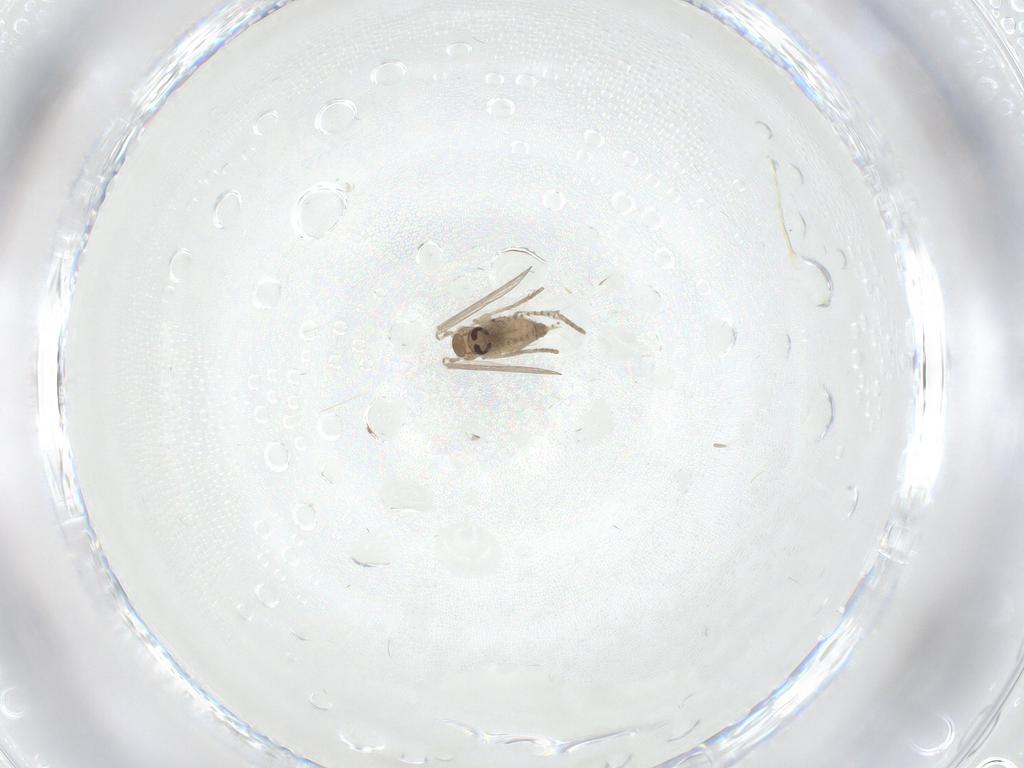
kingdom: Animalia
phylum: Arthropoda
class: Insecta
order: Diptera
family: Psychodidae
